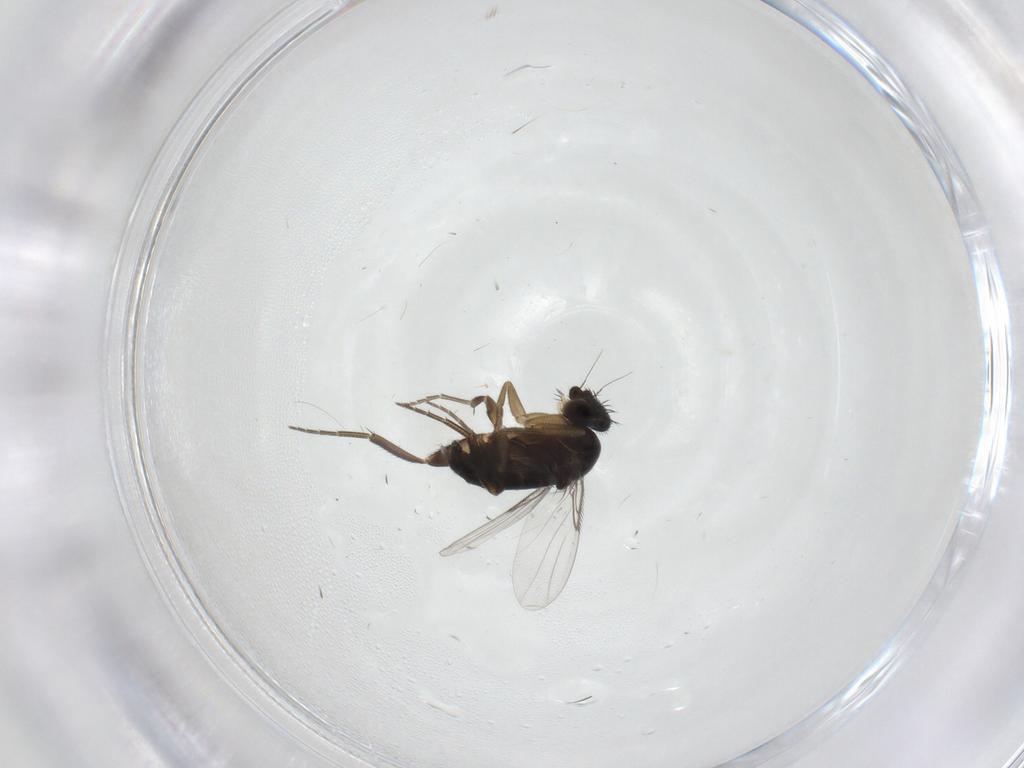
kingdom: Animalia
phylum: Arthropoda
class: Insecta
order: Diptera
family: Phoridae
